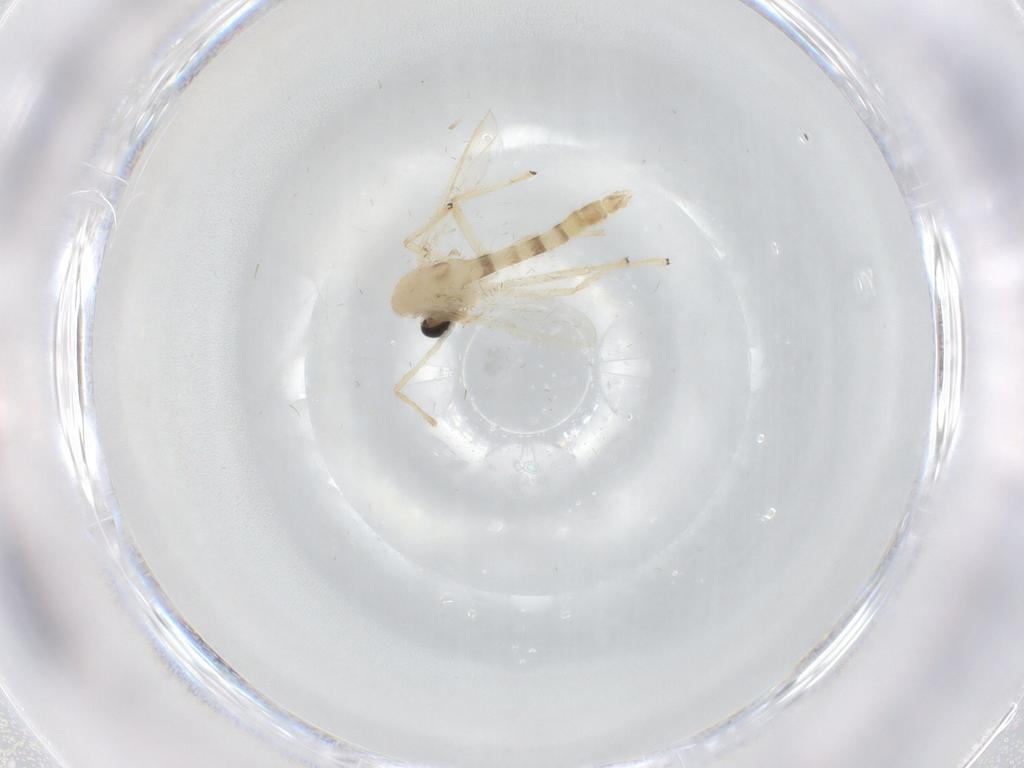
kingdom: Animalia
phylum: Arthropoda
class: Insecta
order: Diptera
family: Chironomidae
